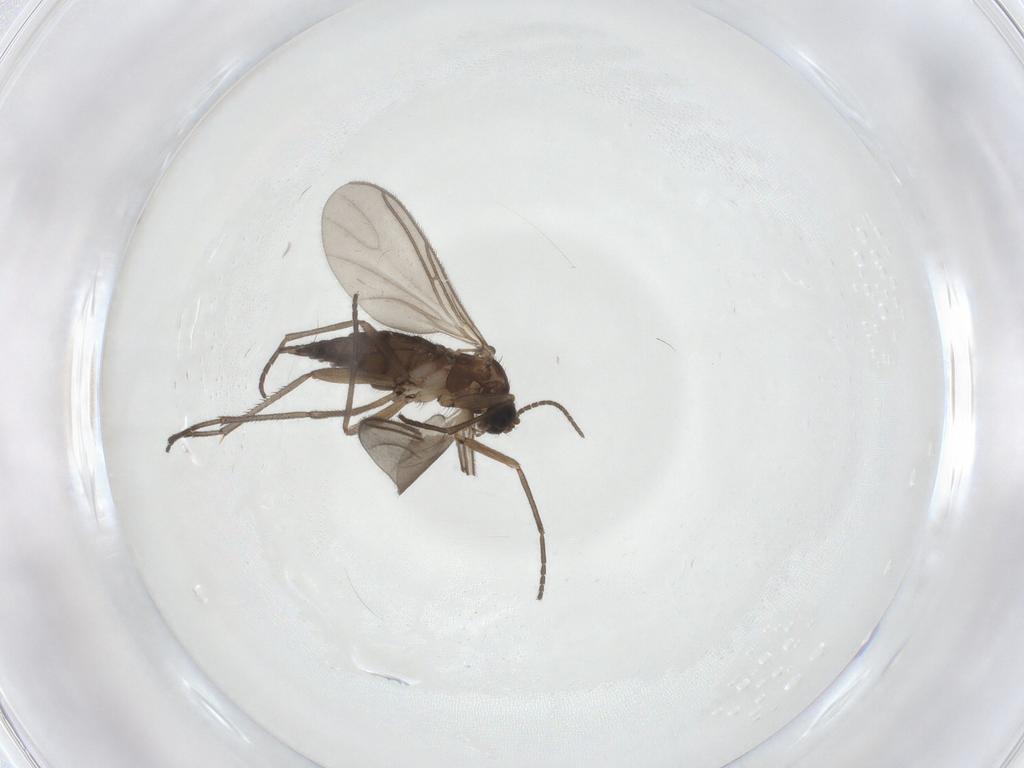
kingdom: Animalia
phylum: Arthropoda
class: Insecta
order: Diptera
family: Sciaridae
